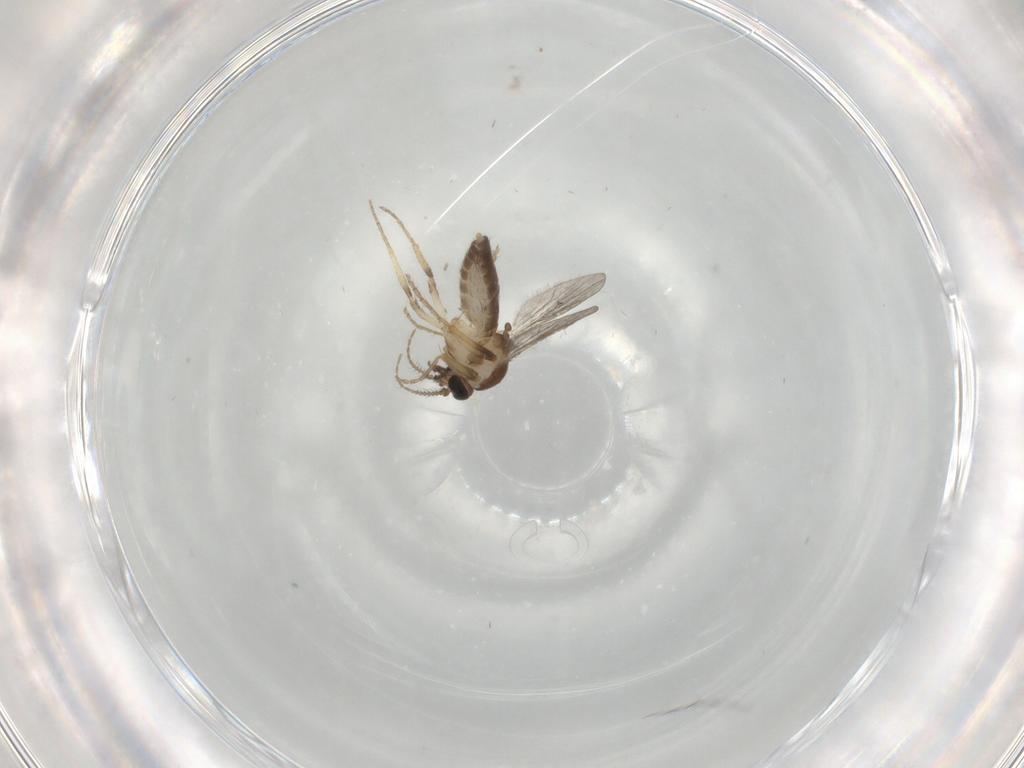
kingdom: Animalia
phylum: Arthropoda
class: Insecta
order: Diptera
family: Ceratopogonidae
